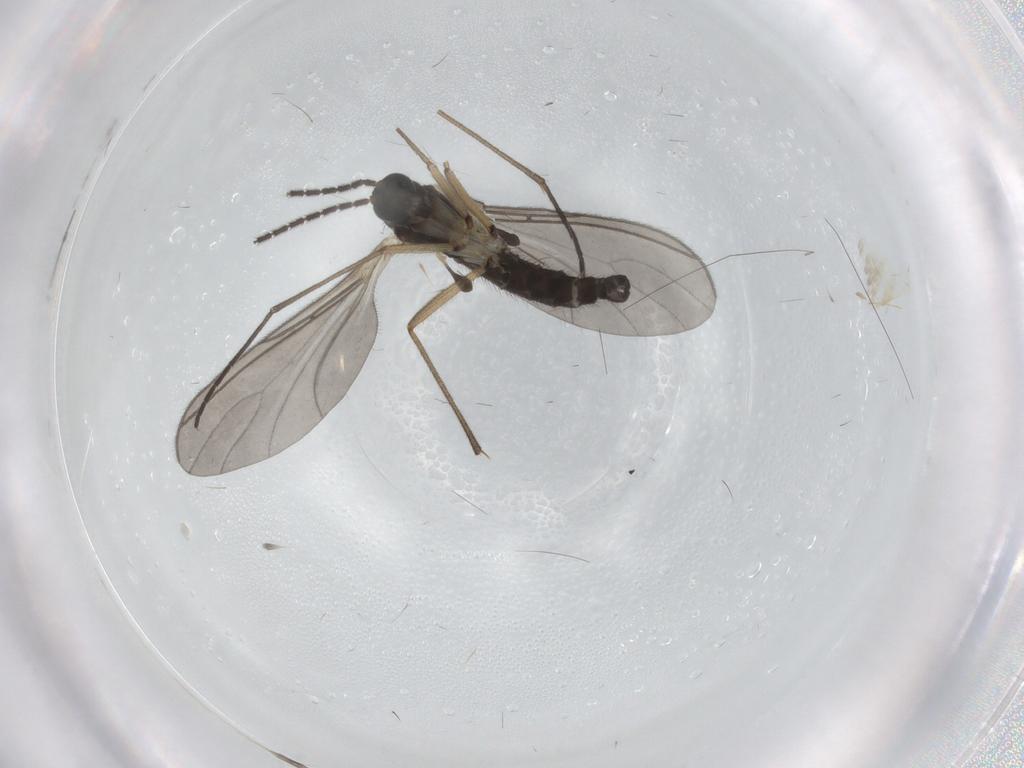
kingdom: Animalia
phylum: Arthropoda
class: Insecta
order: Diptera
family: Sciaridae
